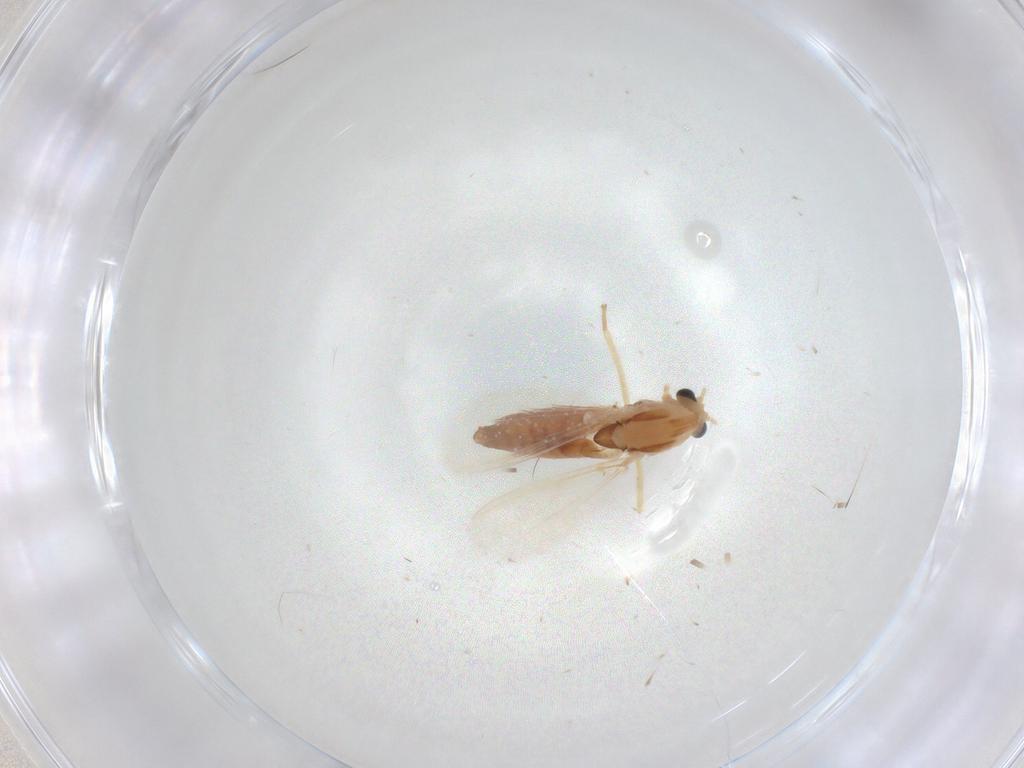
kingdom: Animalia
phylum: Arthropoda
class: Insecta
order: Diptera
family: Chironomidae
